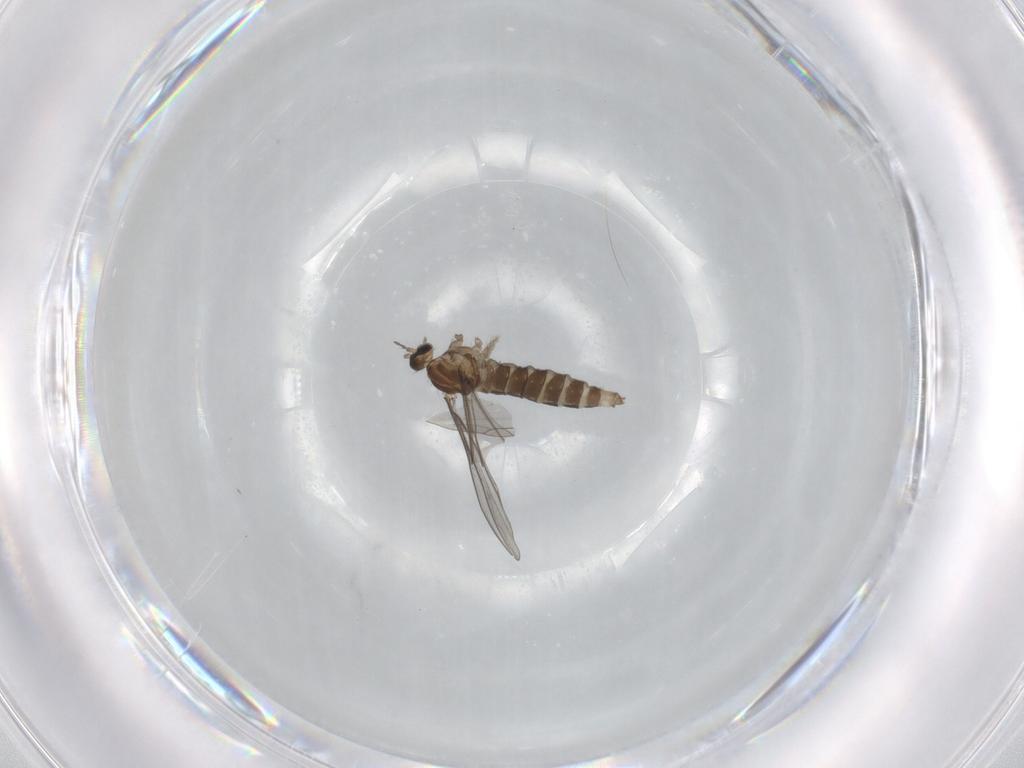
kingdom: Animalia
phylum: Arthropoda
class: Insecta
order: Diptera
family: Cecidomyiidae
